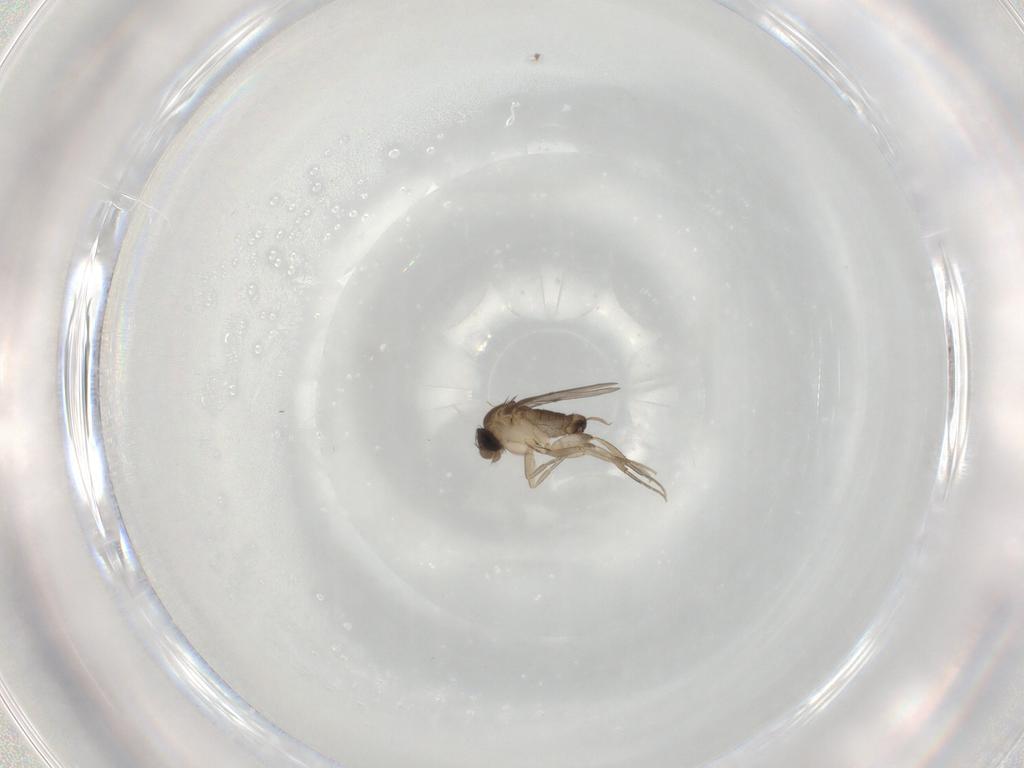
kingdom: Animalia
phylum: Arthropoda
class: Insecta
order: Diptera
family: Phoridae
